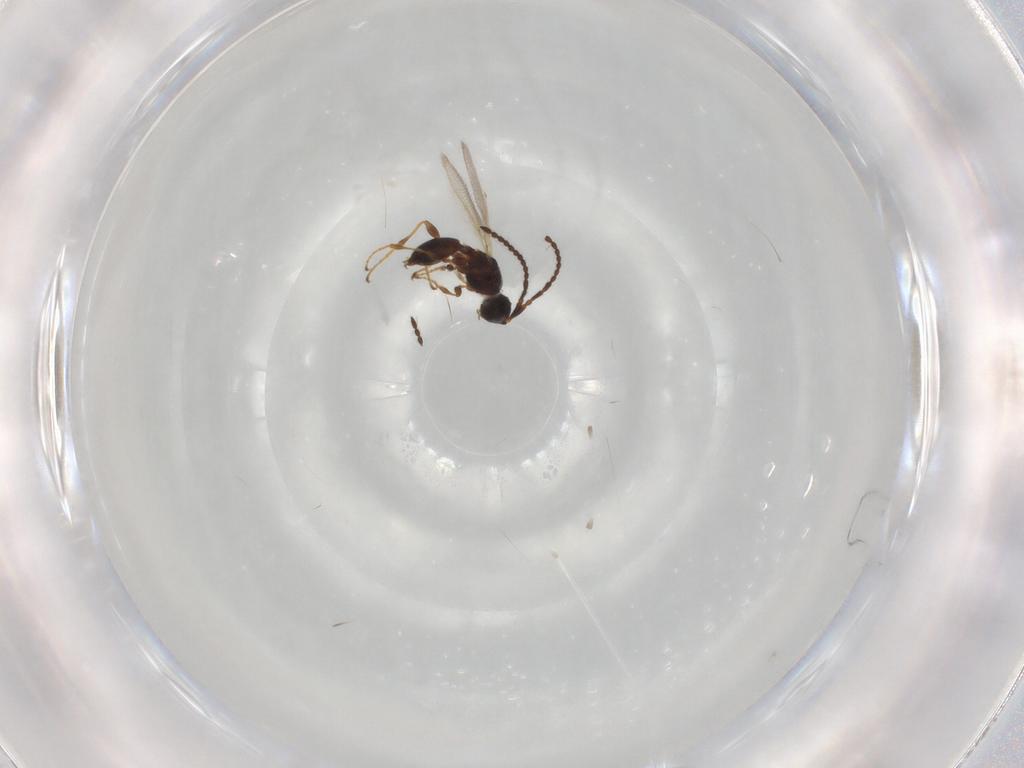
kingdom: Animalia
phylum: Arthropoda
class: Insecta
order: Hymenoptera
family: Diapriidae
